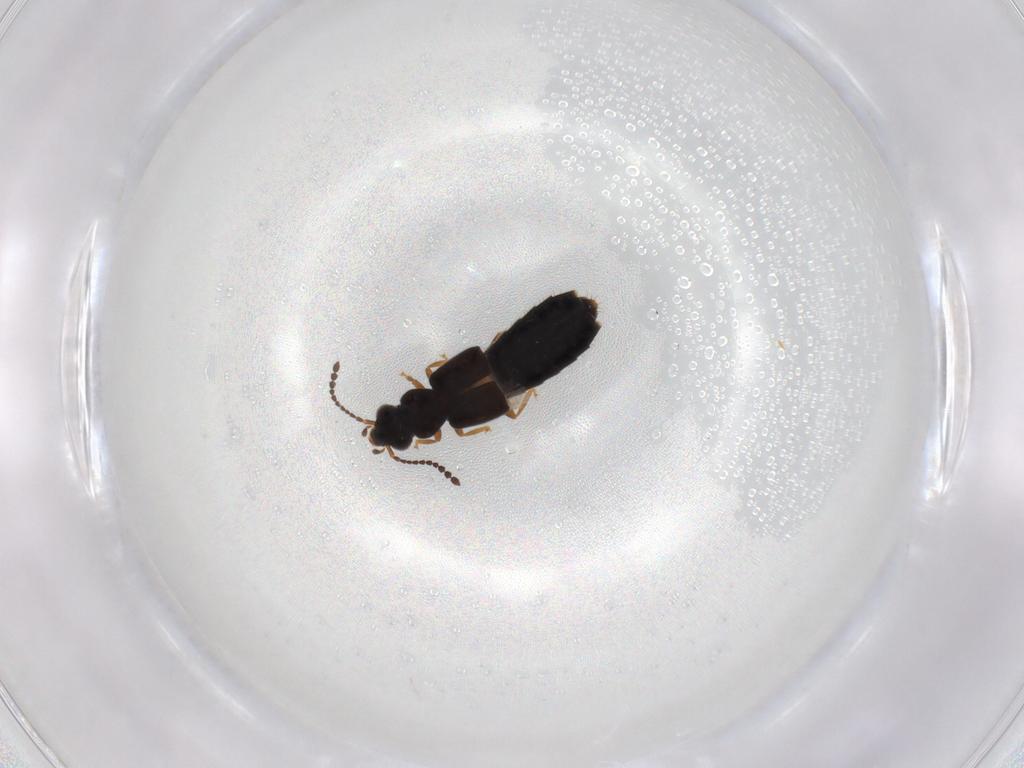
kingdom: Animalia
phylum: Arthropoda
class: Insecta
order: Coleoptera
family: Staphylinidae
